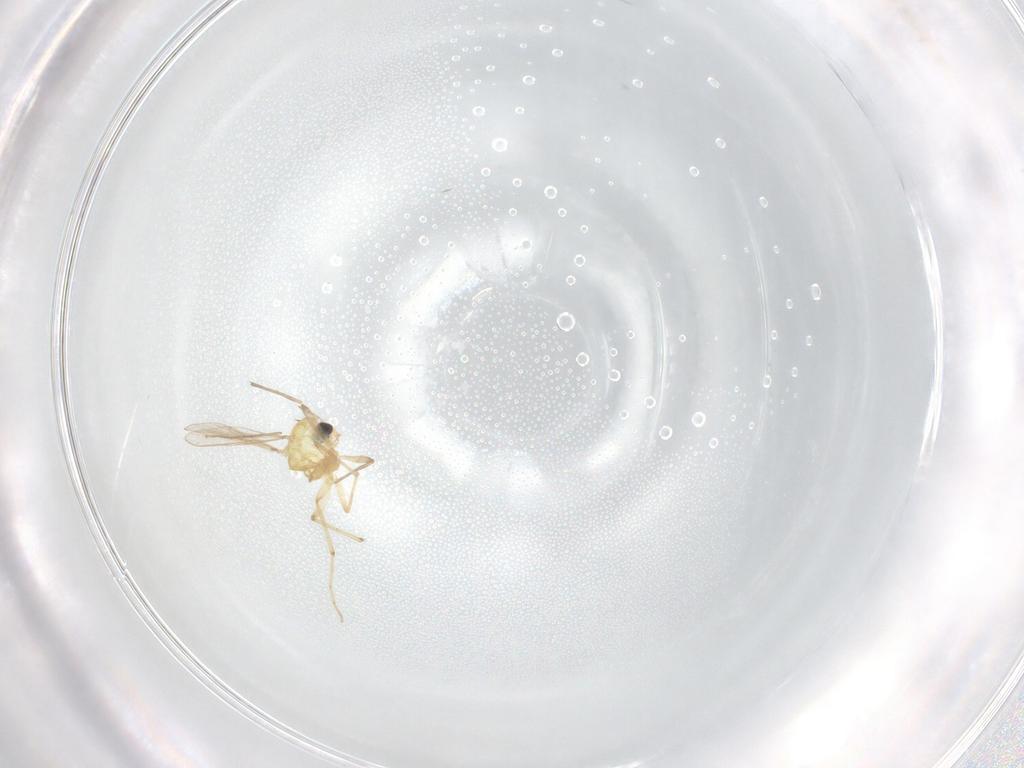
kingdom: Animalia
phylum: Arthropoda
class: Insecta
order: Diptera
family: Chironomidae
